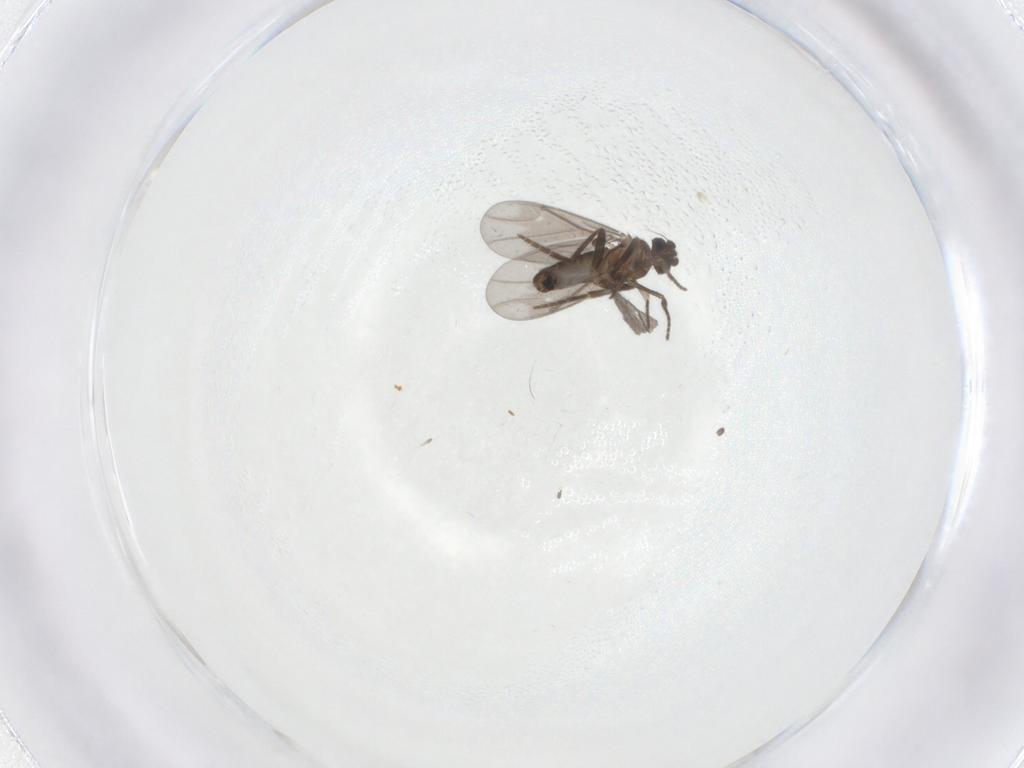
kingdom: Animalia
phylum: Arthropoda
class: Insecta
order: Diptera
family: Phoridae
